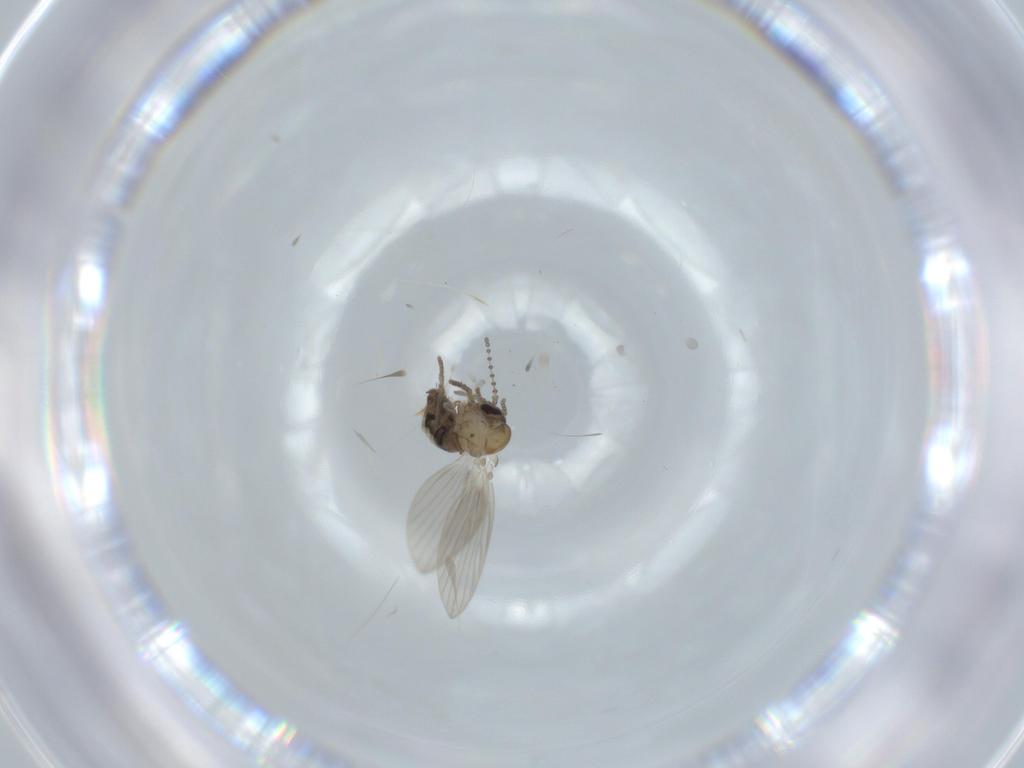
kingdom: Animalia
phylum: Arthropoda
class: Insecta
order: Diptera
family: Psychodidae
